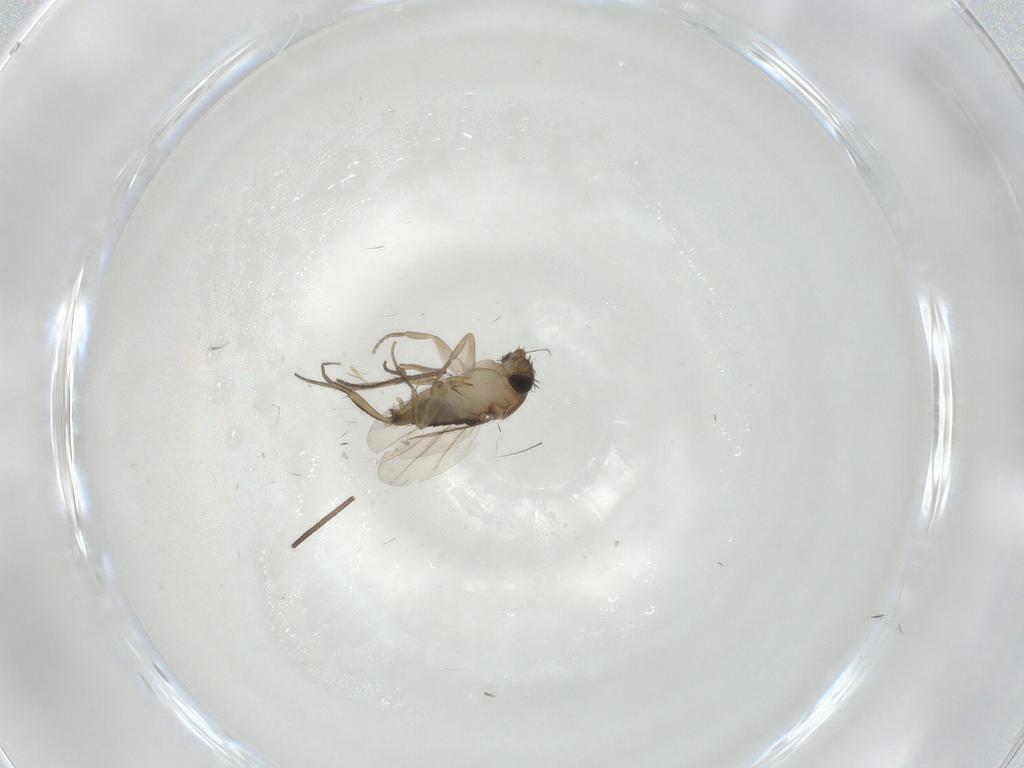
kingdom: Animalia
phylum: Arthropoda
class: Insecta
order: Diptera
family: Phoridae
